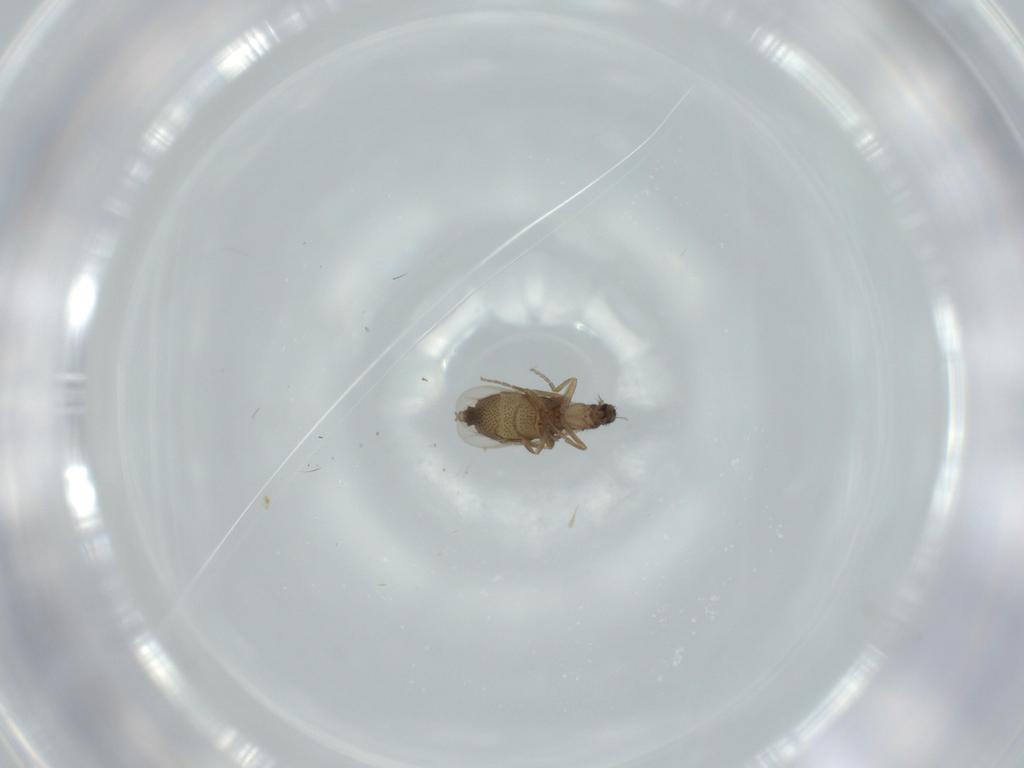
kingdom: Animalia
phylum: Arthropoda
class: Insecta
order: Diptera
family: Phoridae
